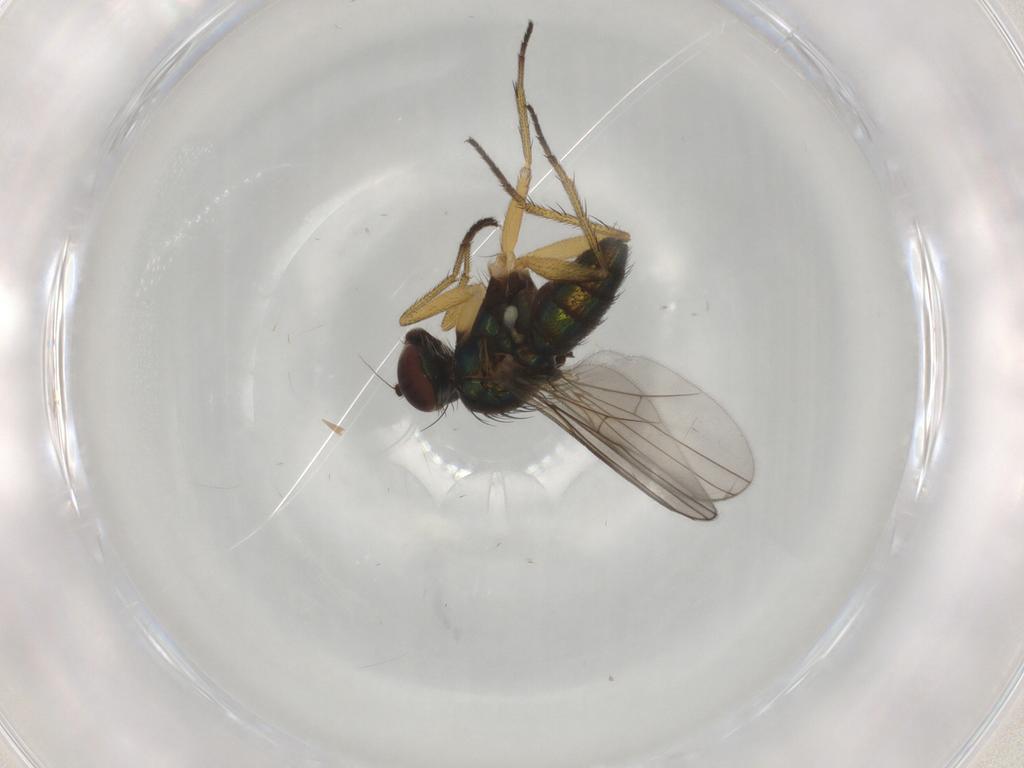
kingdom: Animalia
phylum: Arthropoda
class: Insecta
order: Diptera
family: Dolichopodidae
